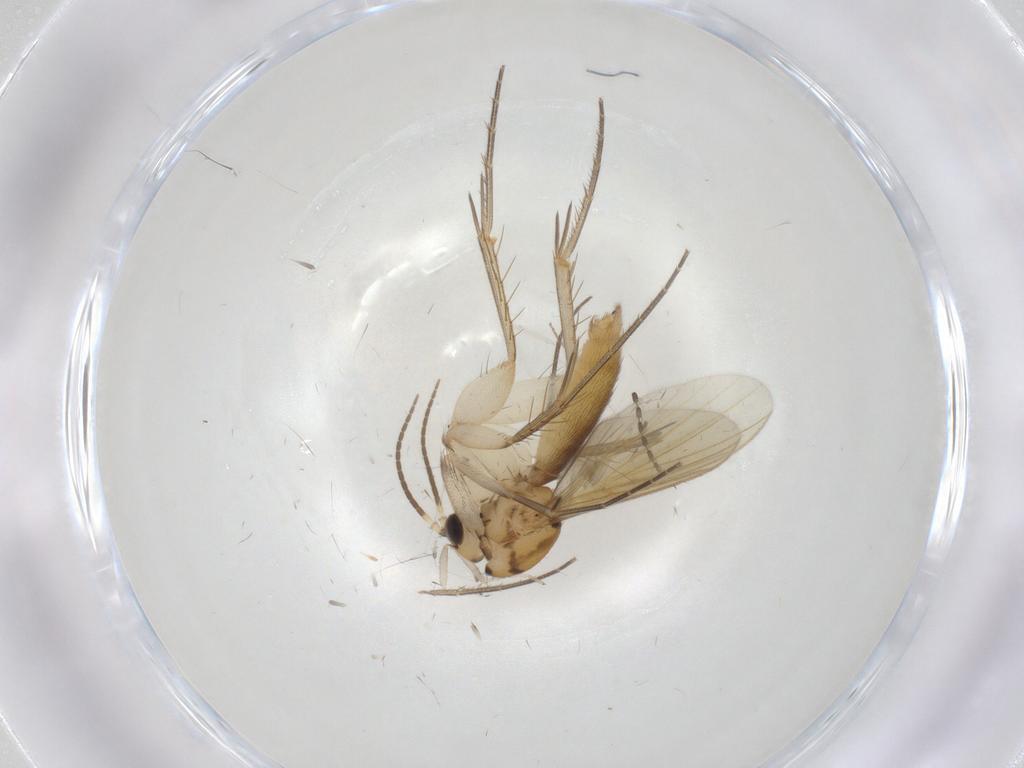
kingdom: Animalia
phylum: Arthropoda
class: Insecta
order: Diptera
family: Mycetophilidae
